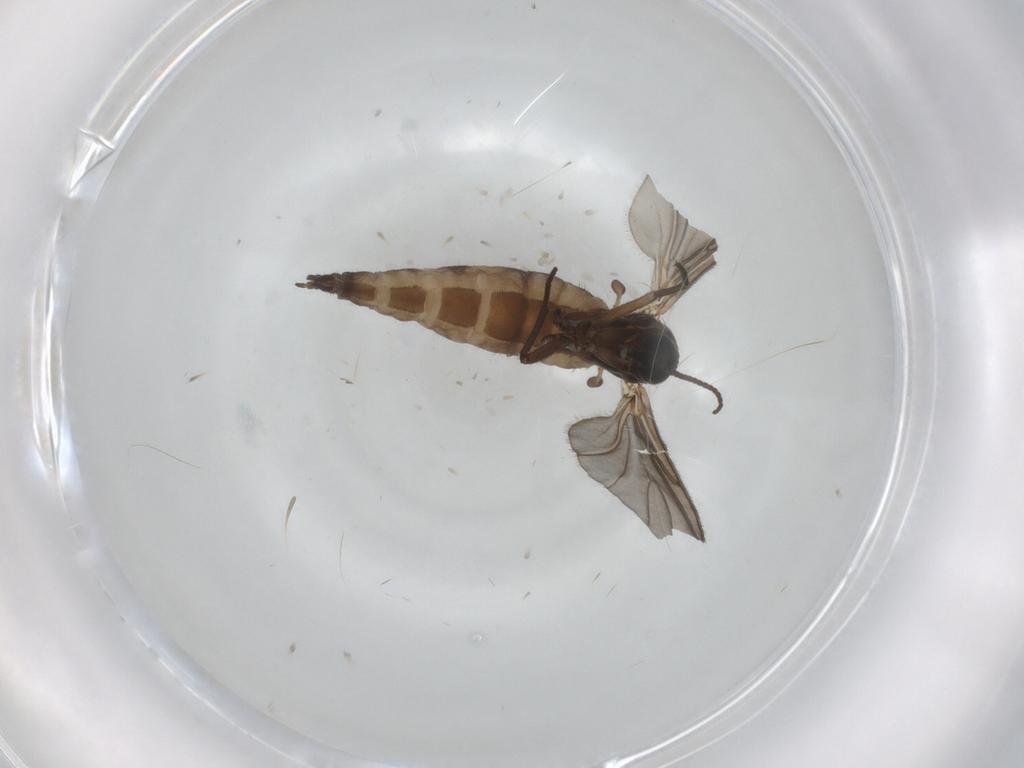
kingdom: Animalia
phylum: Arthropoda
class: Insecta
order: Diptera
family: Sciaridae
